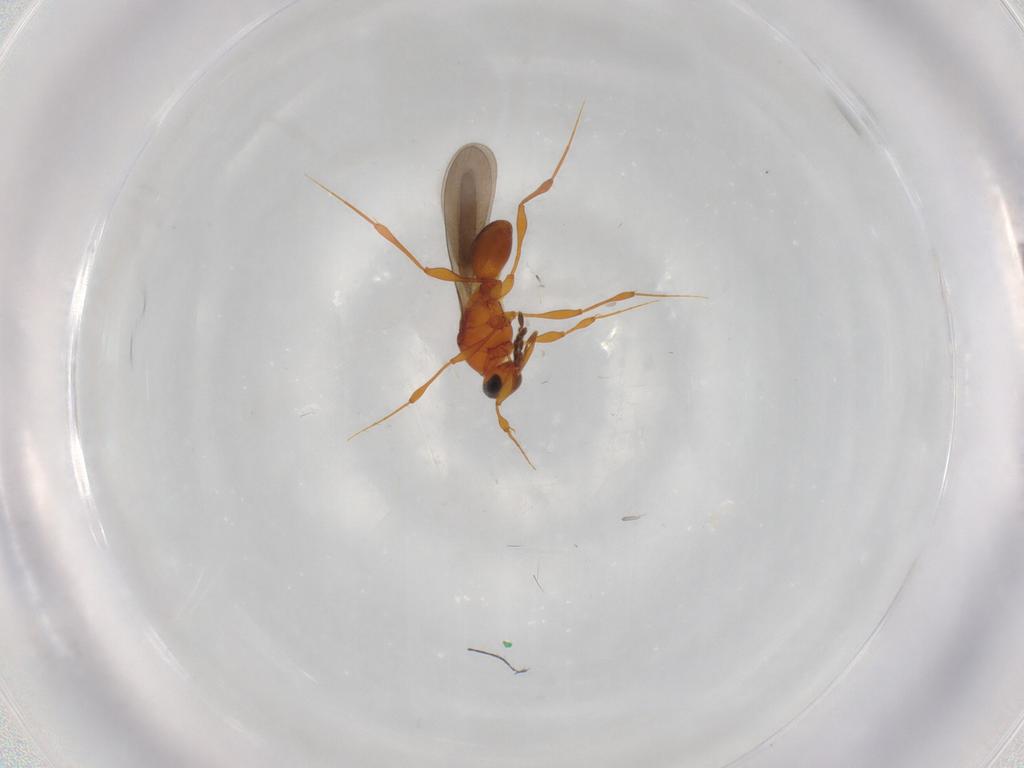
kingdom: Animalia
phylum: Arthropoda
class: Insecta
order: Hymenoptera
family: Platygastridae
